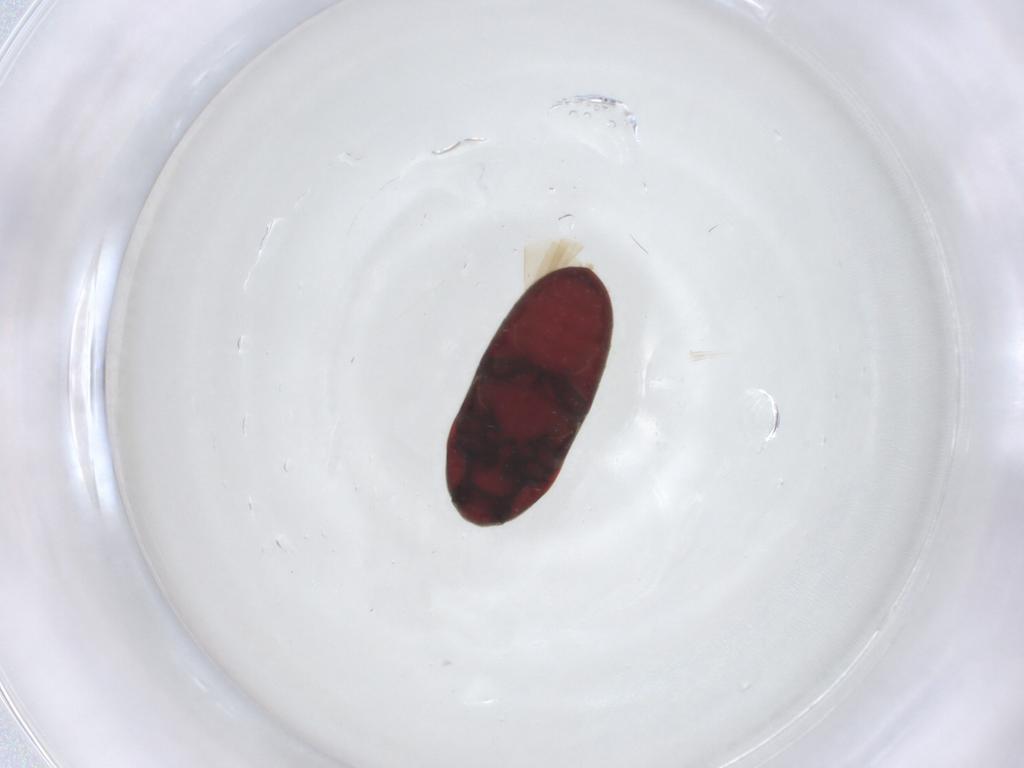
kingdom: Animalia
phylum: Arthropoda
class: Insecta
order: Coleoptera
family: Throscidae
